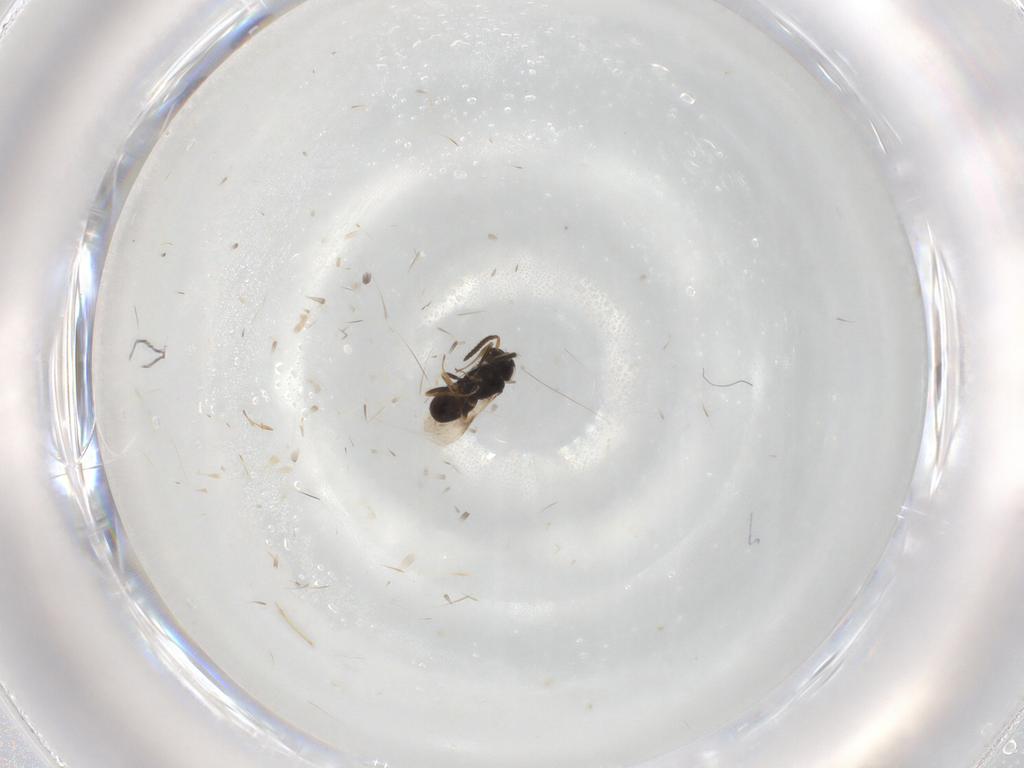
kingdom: Animalia
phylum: Arthropoda
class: Insecta
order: Hymenoptera
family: Scelionidae
